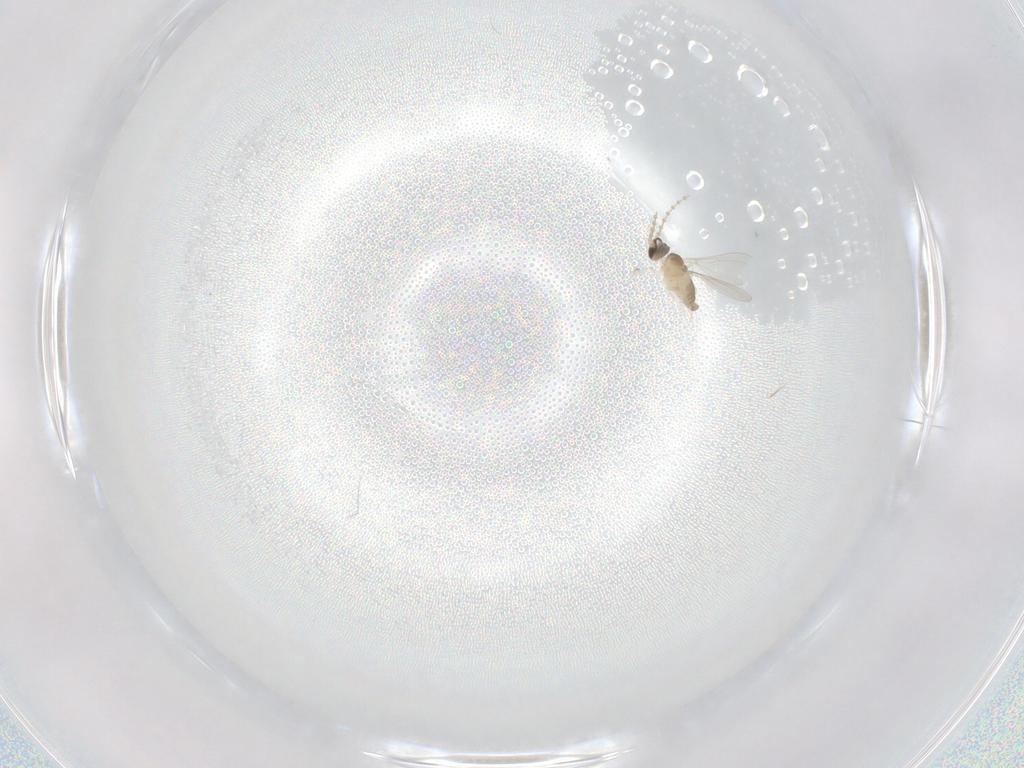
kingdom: Animalia
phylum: Arthropoda
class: Insecta
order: Diptera
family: Cecidomyiidae
